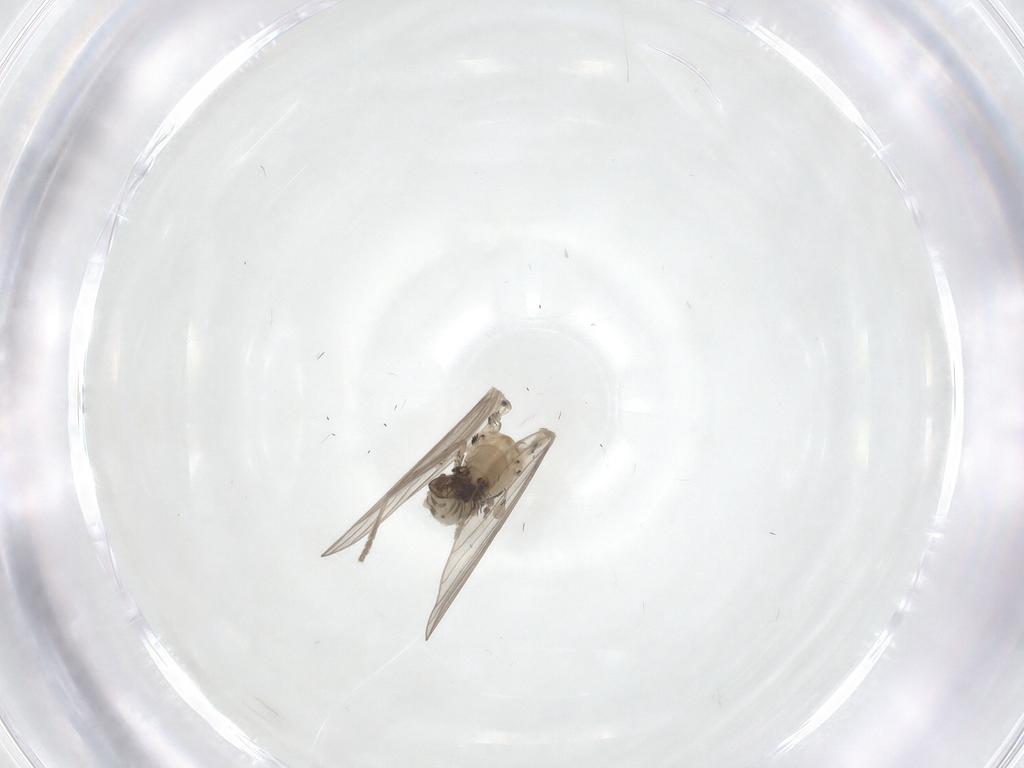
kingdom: Animalia
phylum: Arthropoda
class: Insecta
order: Diptera
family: Psychodidae
